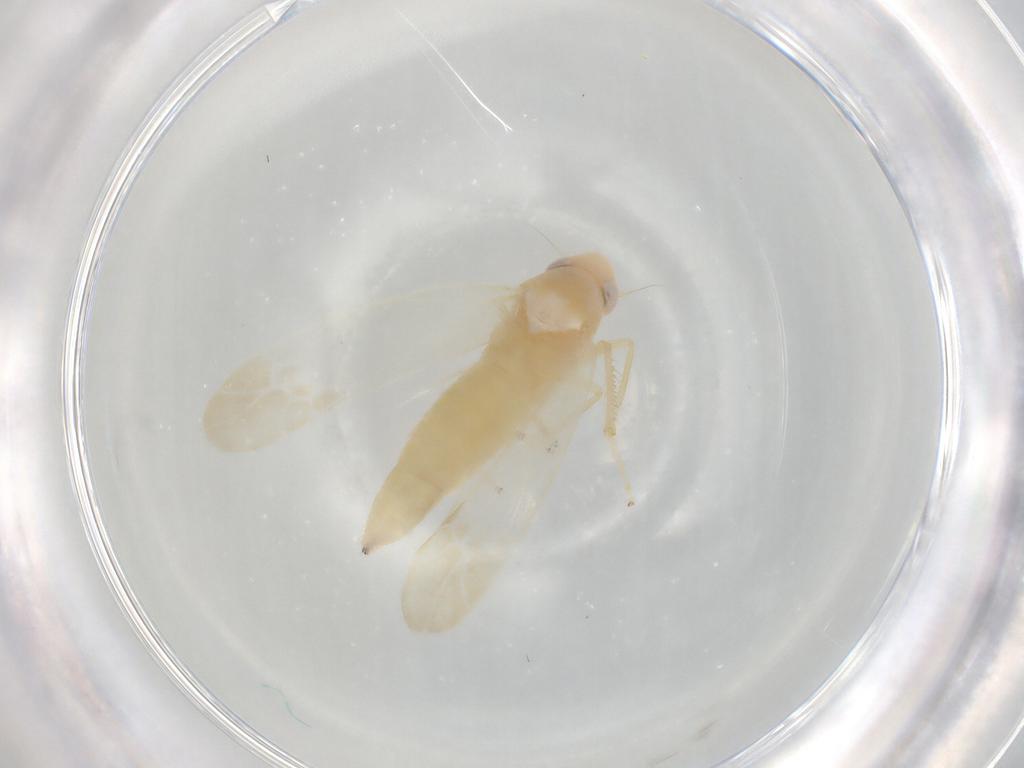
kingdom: Animalia
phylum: Arthropoda
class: Insecta
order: Hemiptera
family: Cicadellidae
